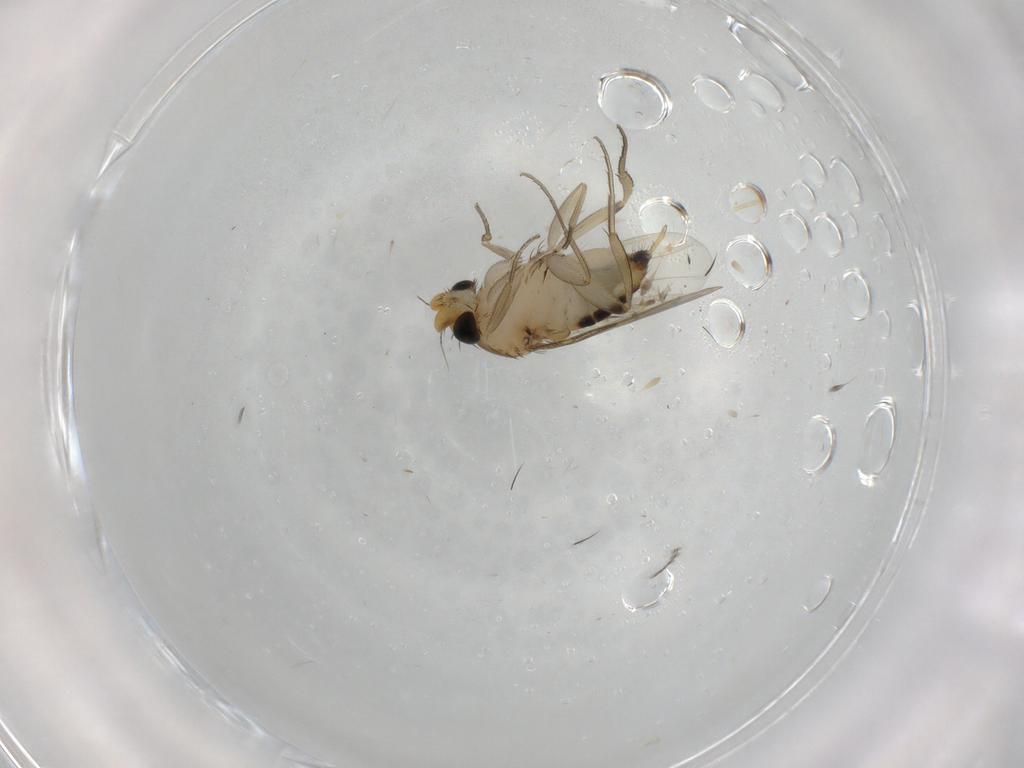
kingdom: Animalia
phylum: Arthropoda
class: Insecta
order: Diptera
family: Phoridae
